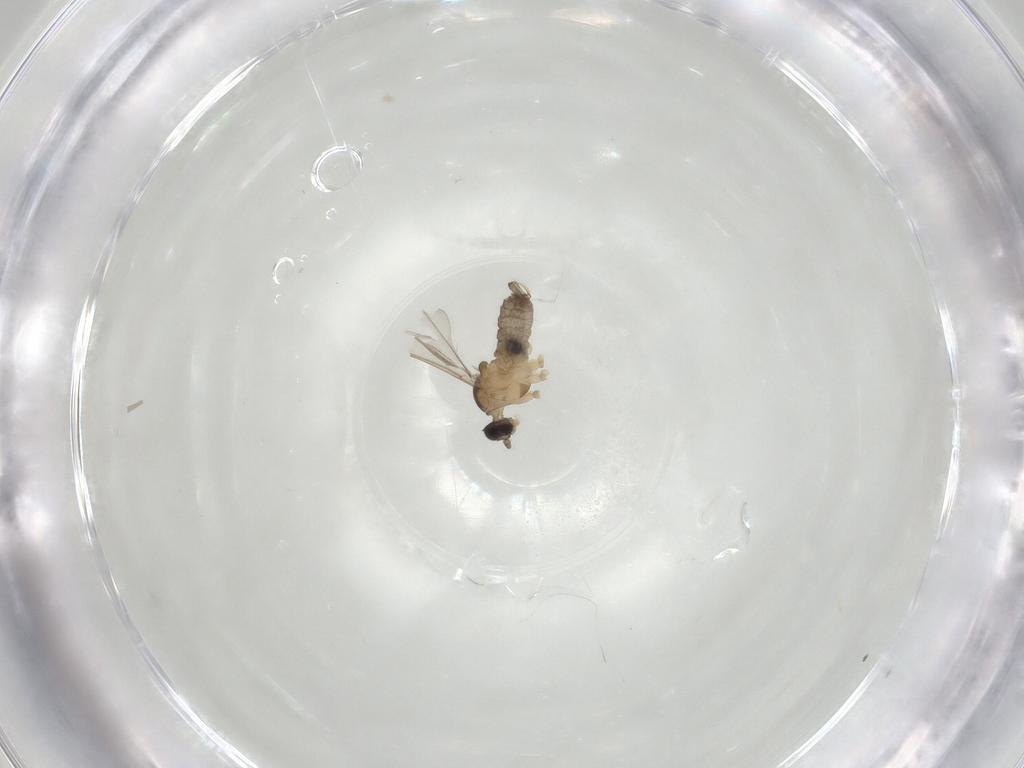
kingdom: Animalia
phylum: Arthropoda
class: Insecta
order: Diptera
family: Cecidomyiidae
